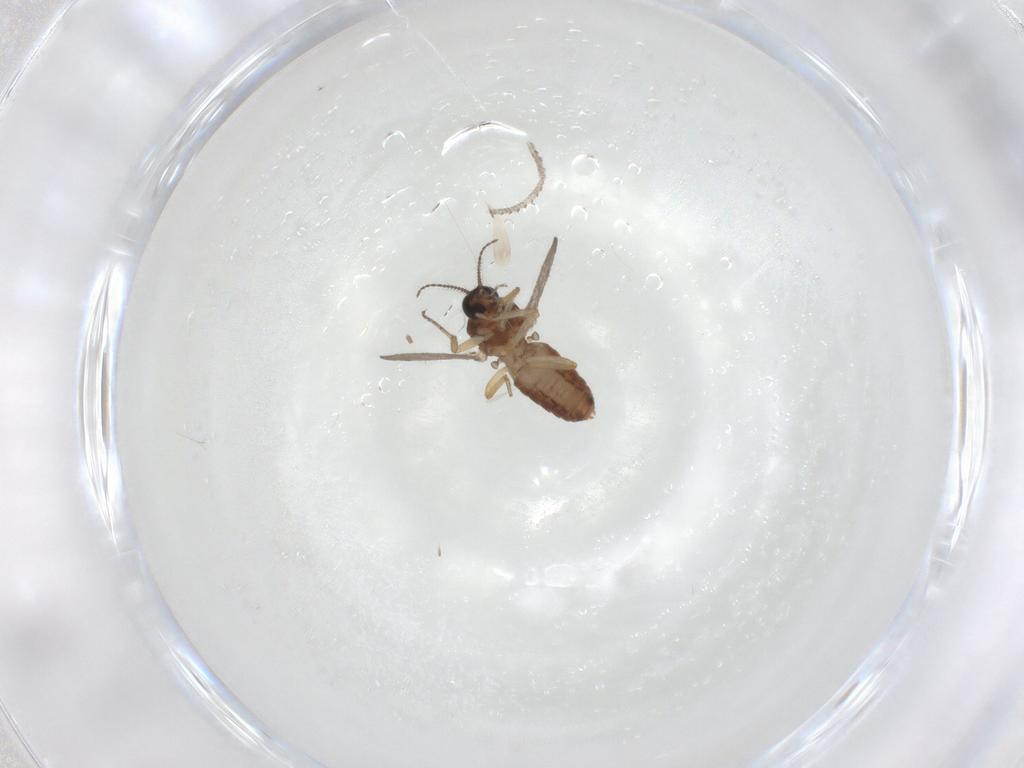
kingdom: Animalia
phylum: Arthropoda
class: Insecta
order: Diptera
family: Ceratopogonidae
